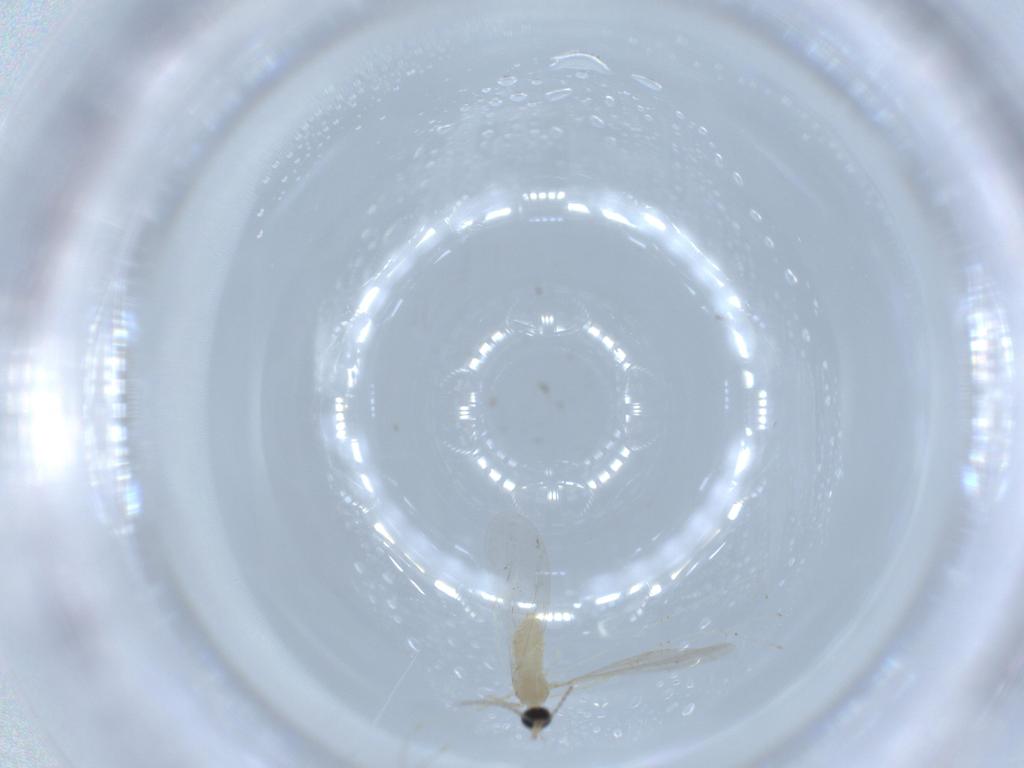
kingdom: Animalia
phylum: Arthropoda
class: Insecta
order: Diptera
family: Cecidomyiidae
